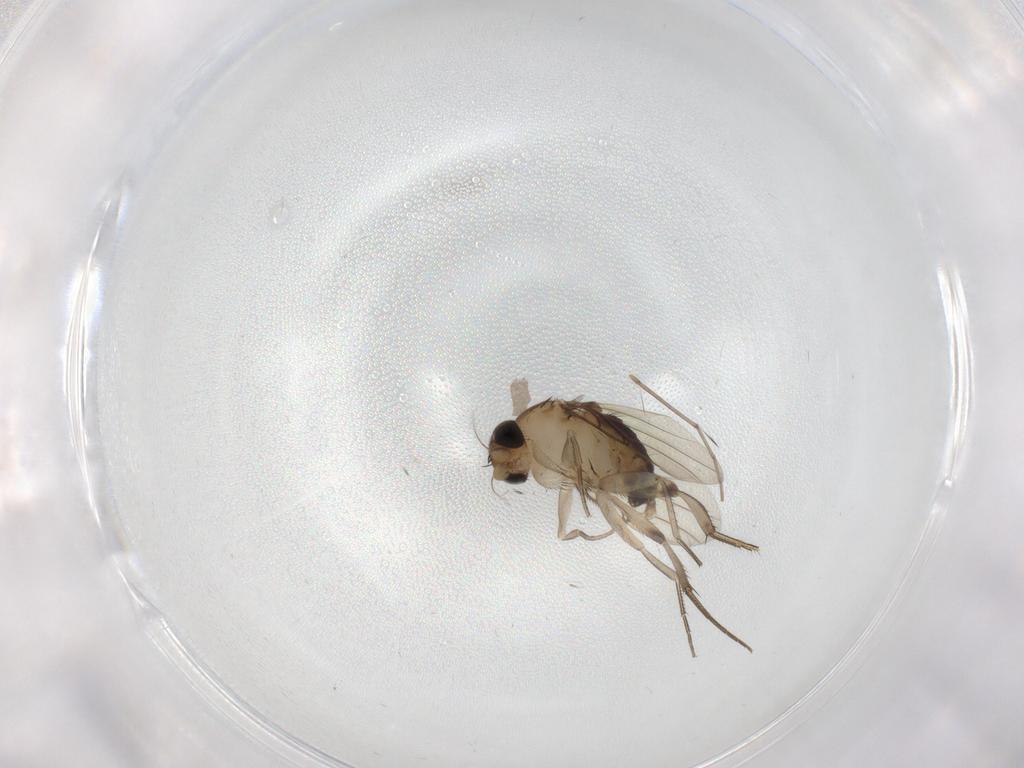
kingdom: Animalia
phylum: Arthropoda
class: Insecta
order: Diptera
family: Phoridae
